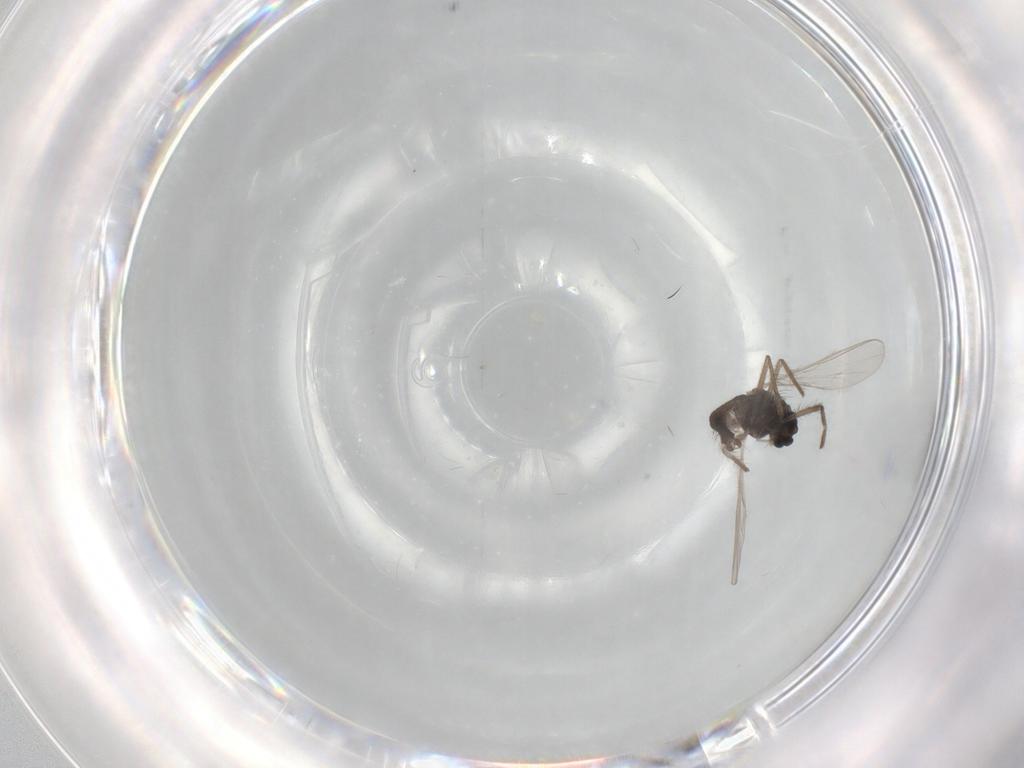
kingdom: Animalia
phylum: Arthropoda
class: Insecta
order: Diptera
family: Chironomidae
